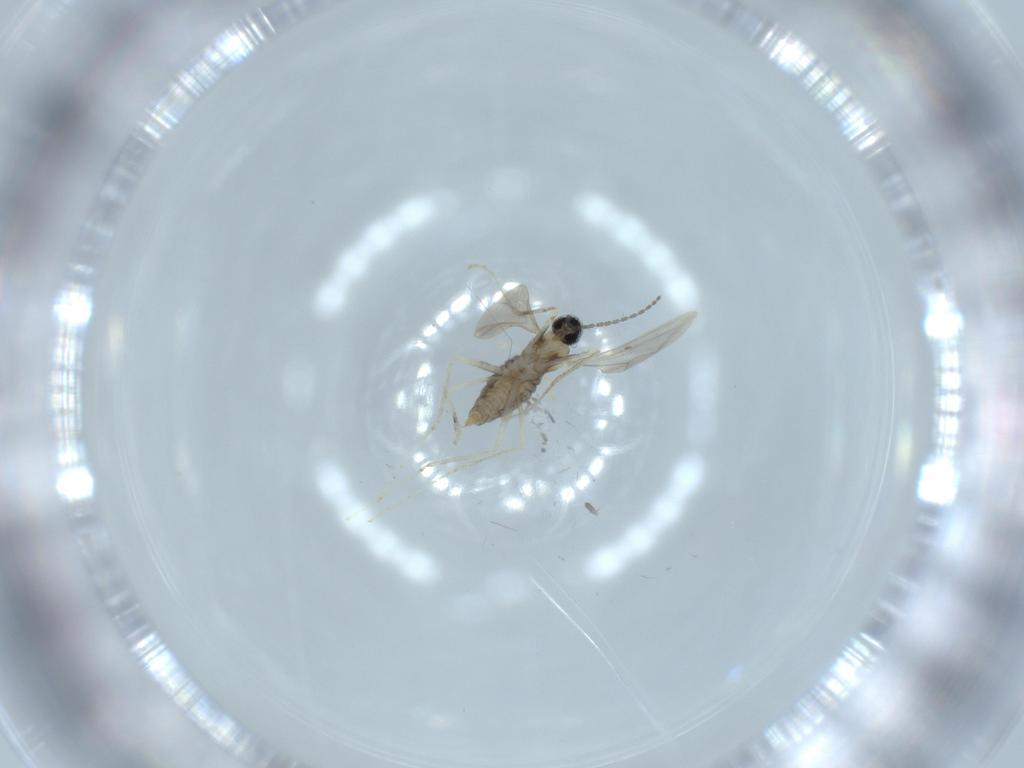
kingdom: Animalia
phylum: Arthropoda
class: Insecta
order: Diptera
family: Cecidomyiidae
